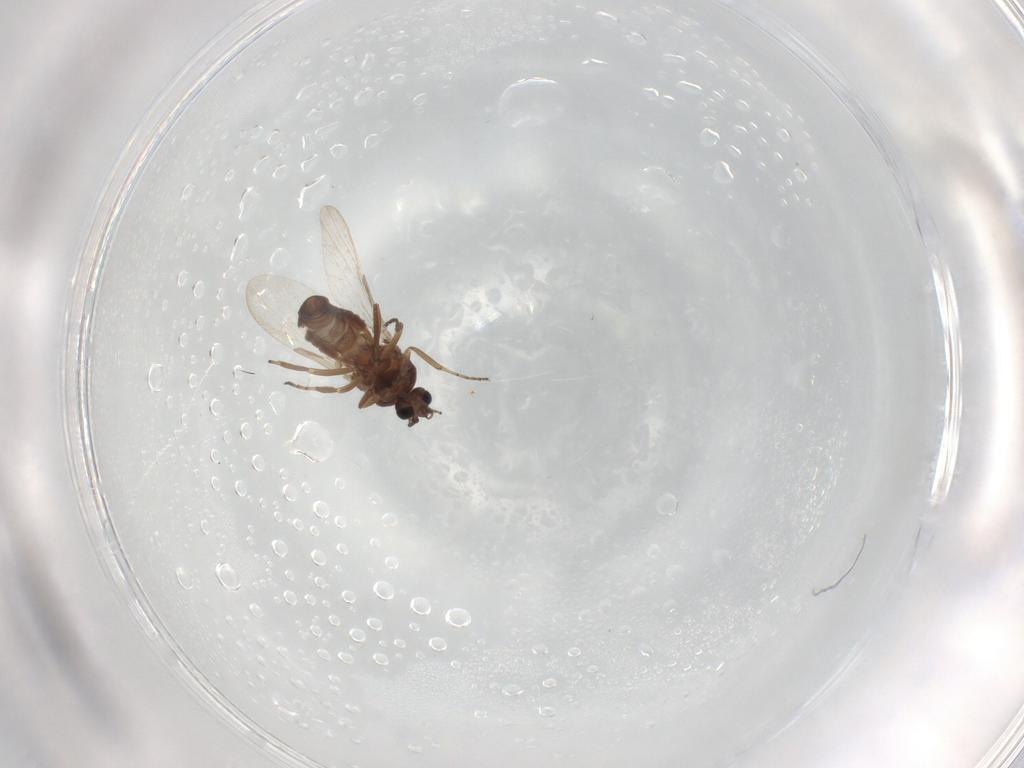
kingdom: Animalia
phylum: Arthropoda
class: Insecta
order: Diptera
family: Ceratopogonidae
